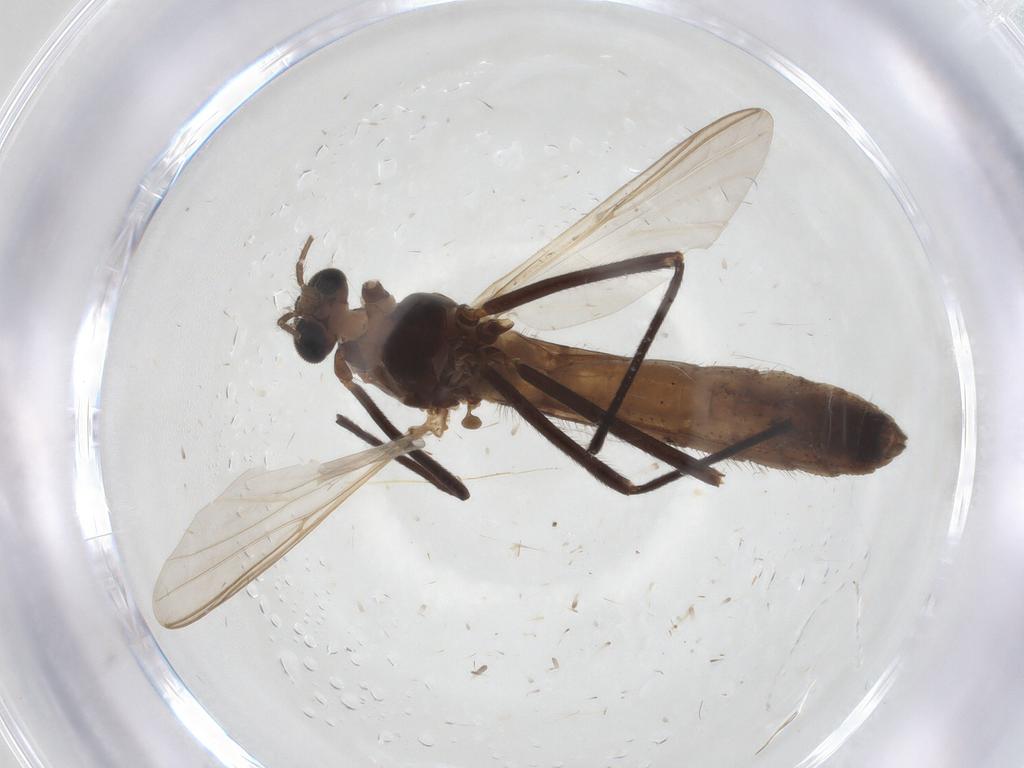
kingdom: Animalia
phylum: Arthropoda
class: Insecta
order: Diptera
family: Chironomidae
